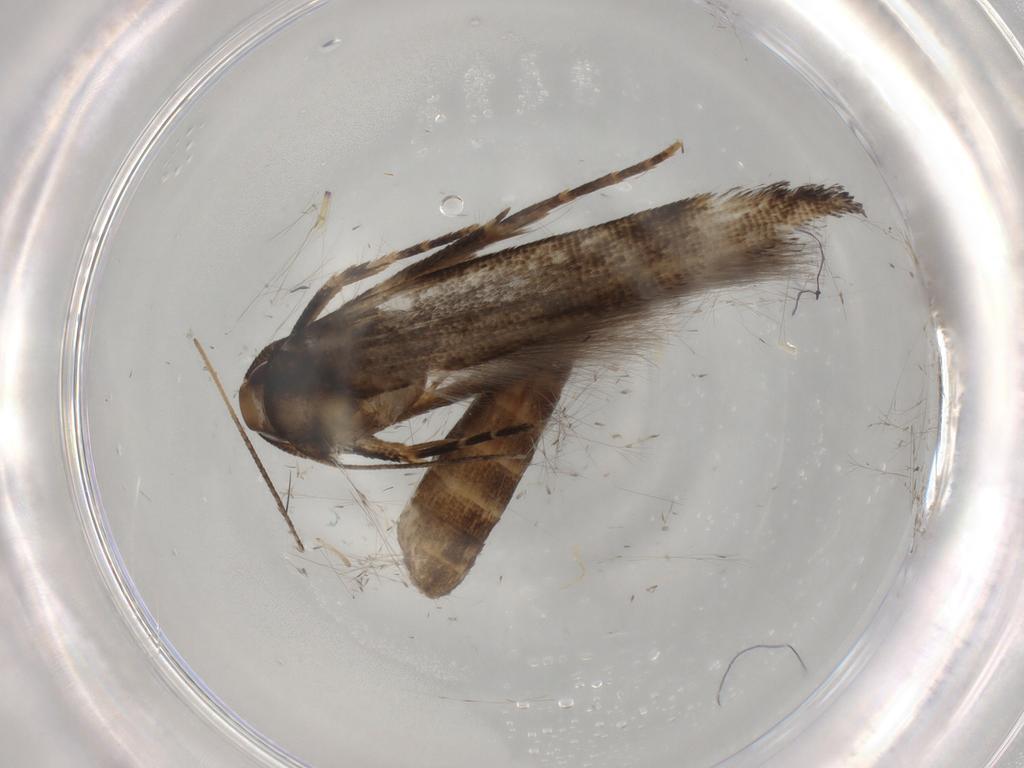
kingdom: Animalia
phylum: Arthropoda
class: Insecta
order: Lepidoptera
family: Cosmopterigidae
